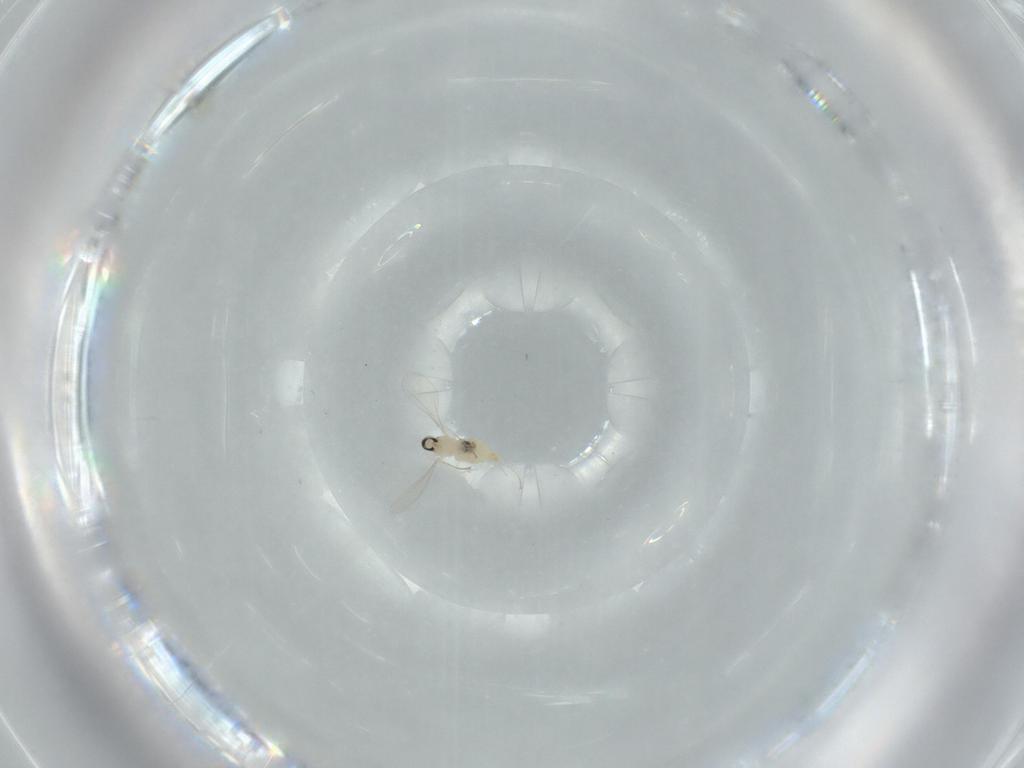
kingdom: Animalia
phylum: Arthropoda
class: Insecta
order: Diptera
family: Cecidomyiidae
